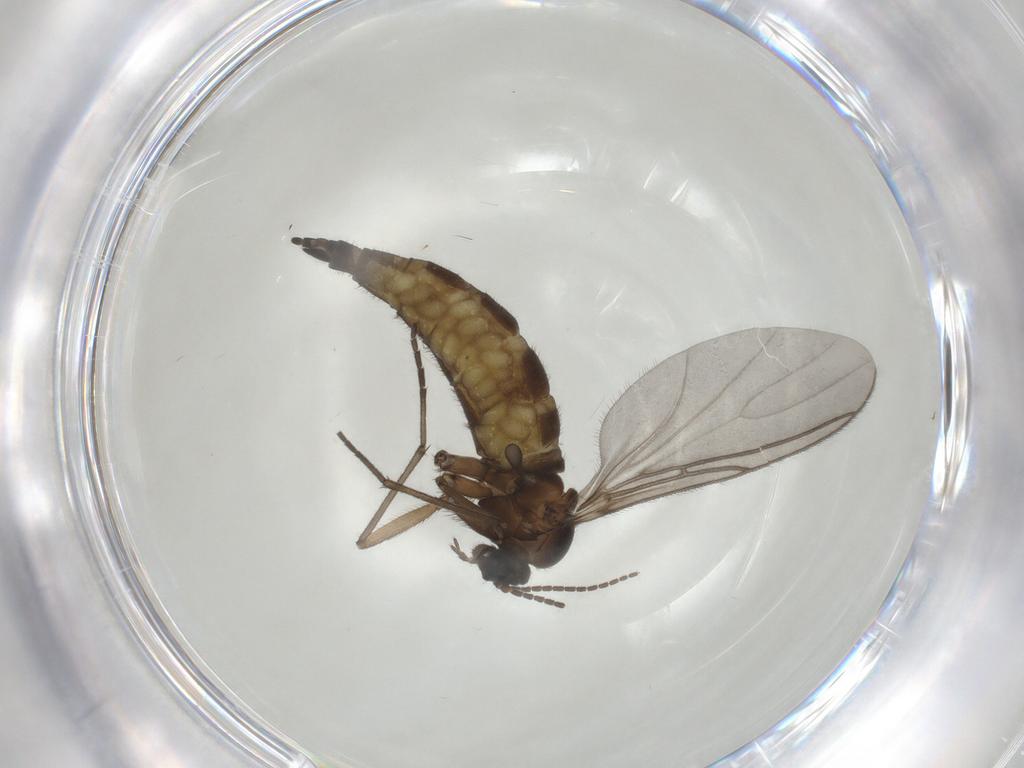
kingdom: Animalia
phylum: Arthropoda
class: Insecta
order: Diptera
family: Sciaridae
